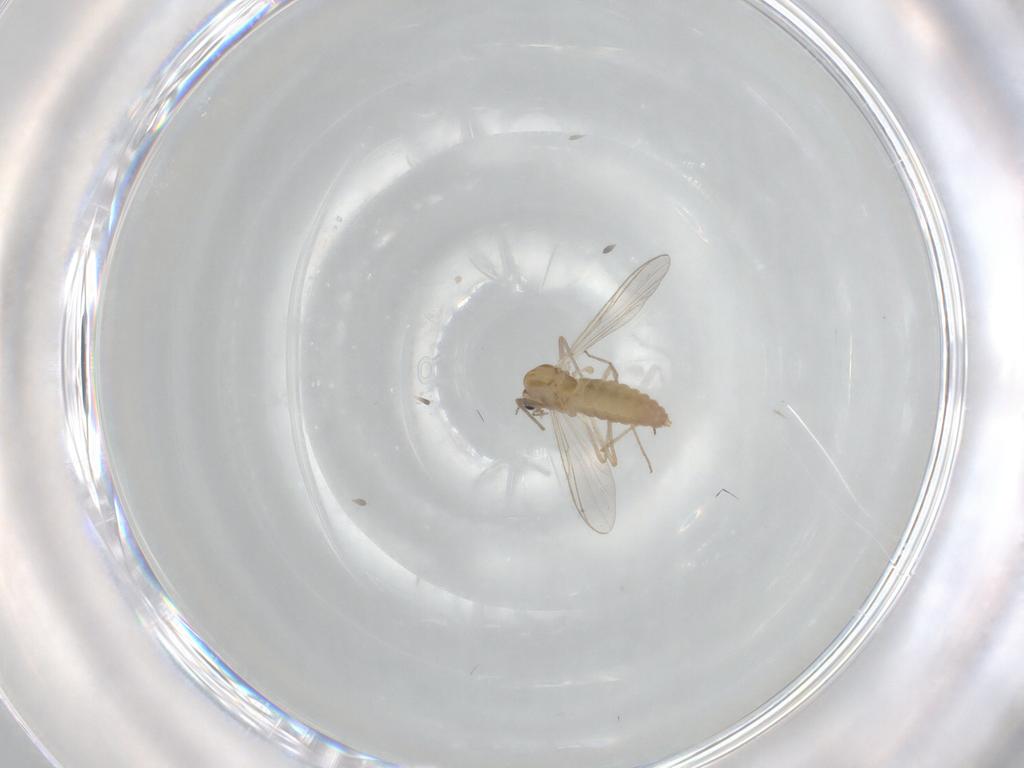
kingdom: Animalia
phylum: Arthropoda
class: Insecta
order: Diptera
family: Chironomidae
